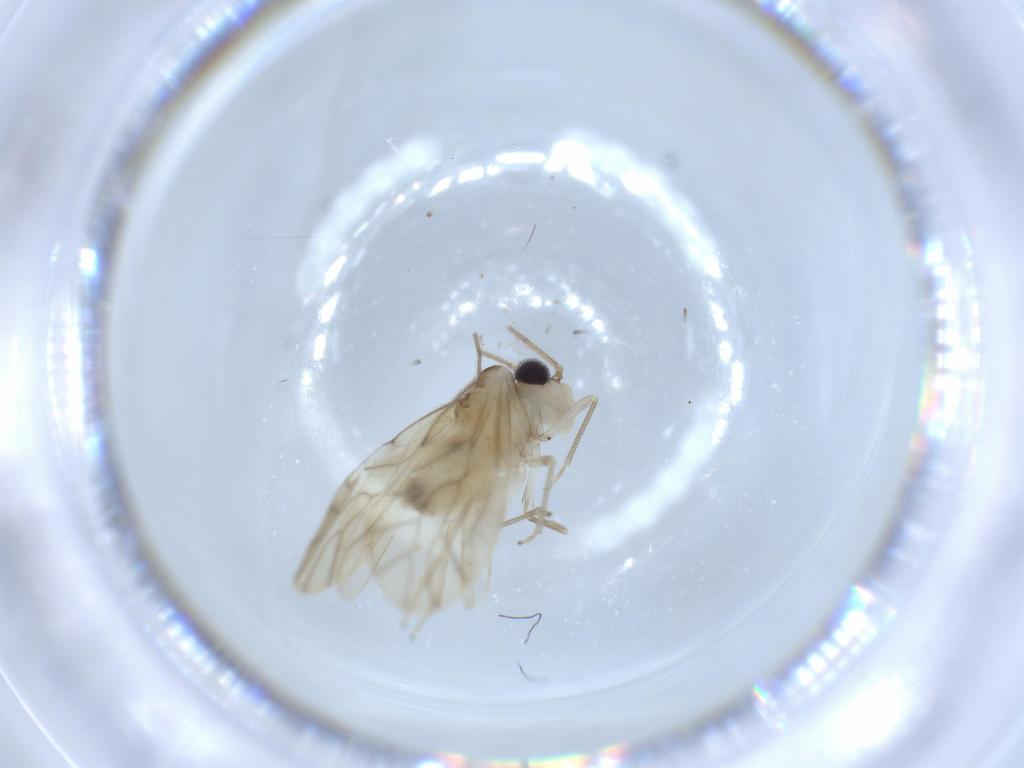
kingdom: Animalia
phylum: Arthropoda
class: Insecta
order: Psocodea
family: Caeciliusidae
